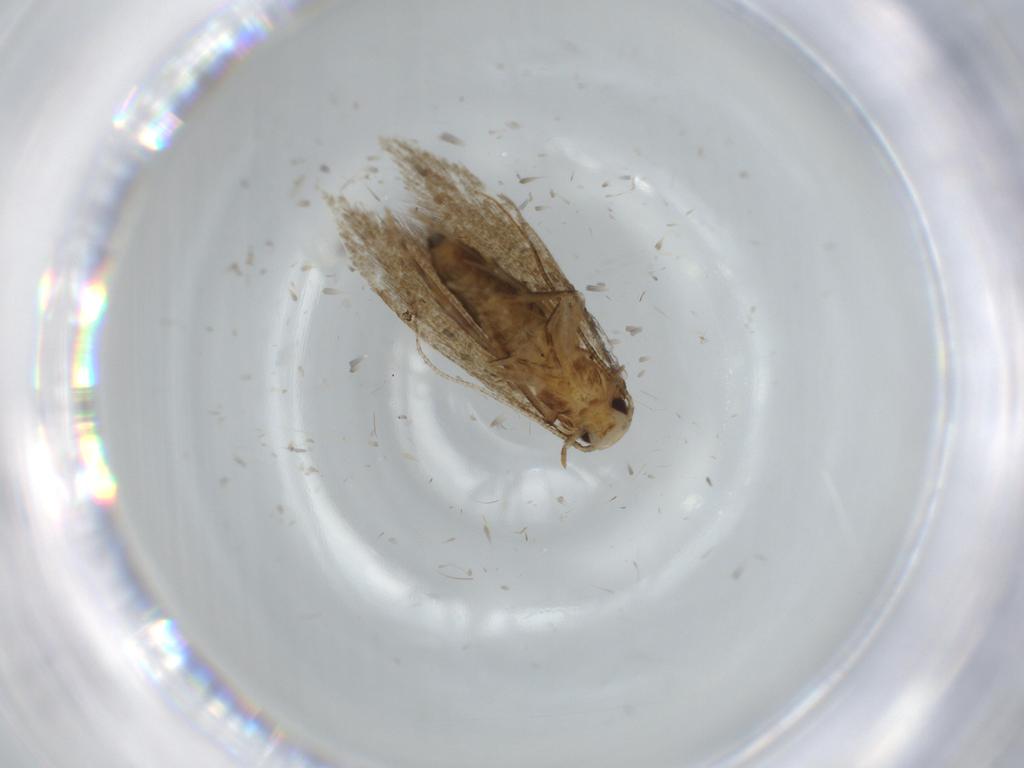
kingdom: Animalia
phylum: Arthropoda
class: Insecta
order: Lepidoptera
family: Tineidae
